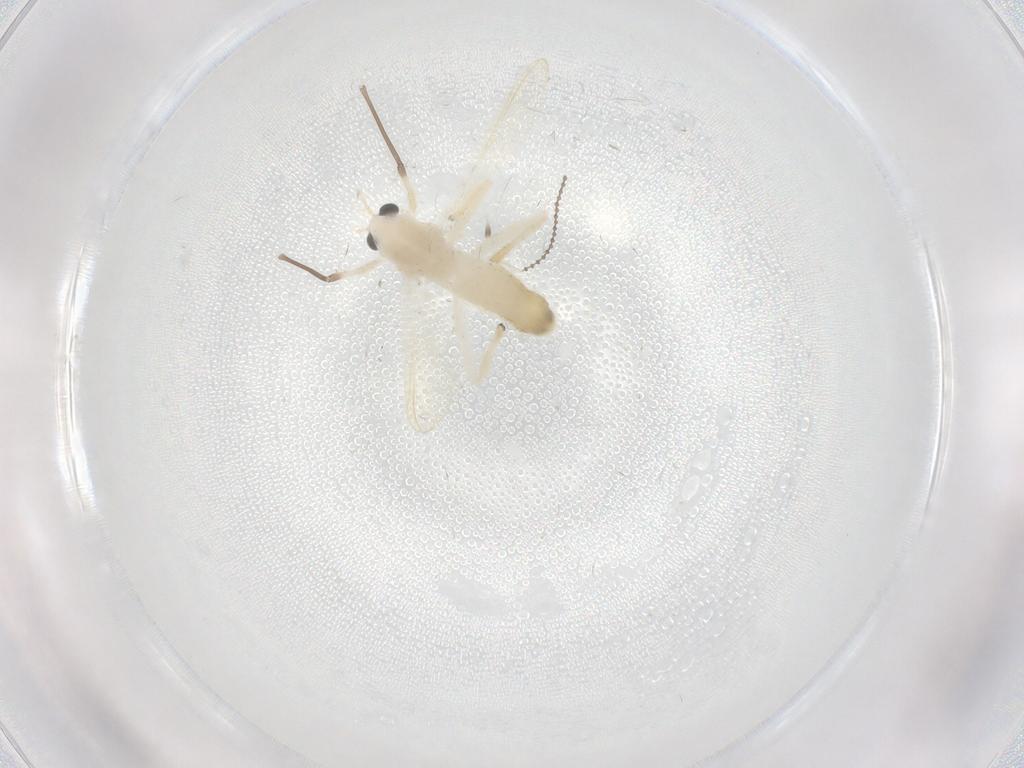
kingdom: Animalia
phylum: Arthropoda
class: Insecta
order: Diptera
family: Chironomidae
